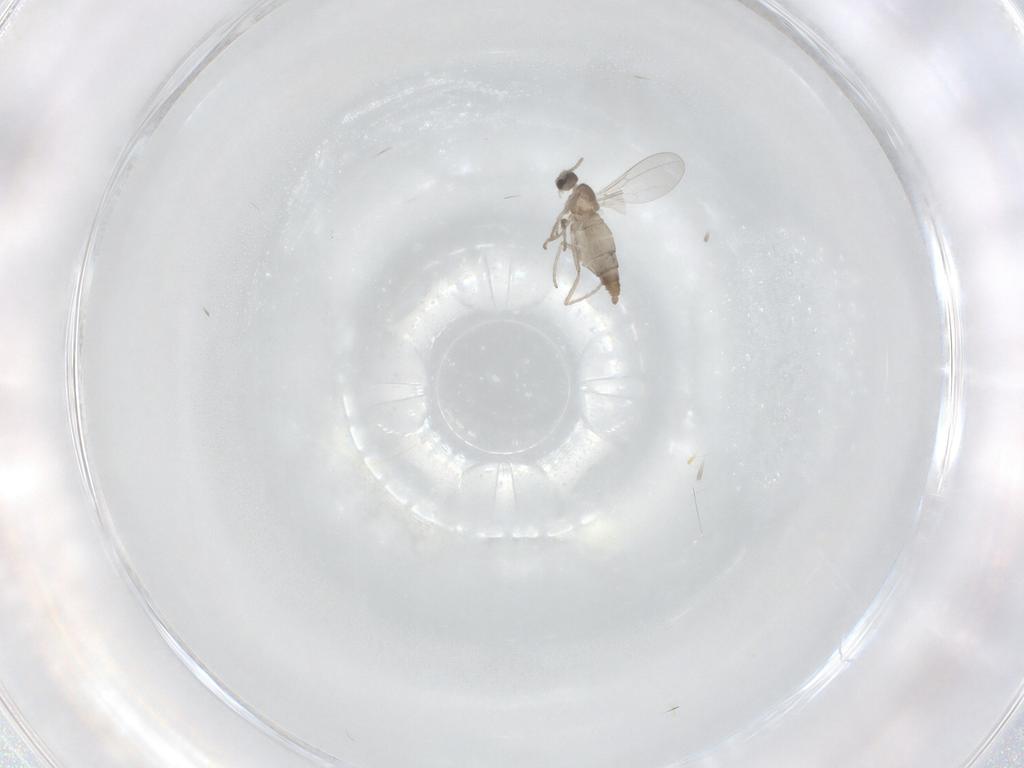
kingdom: Animalia
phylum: Arthropoda
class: Insecta
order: Diptera
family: Cecidomyiidae
